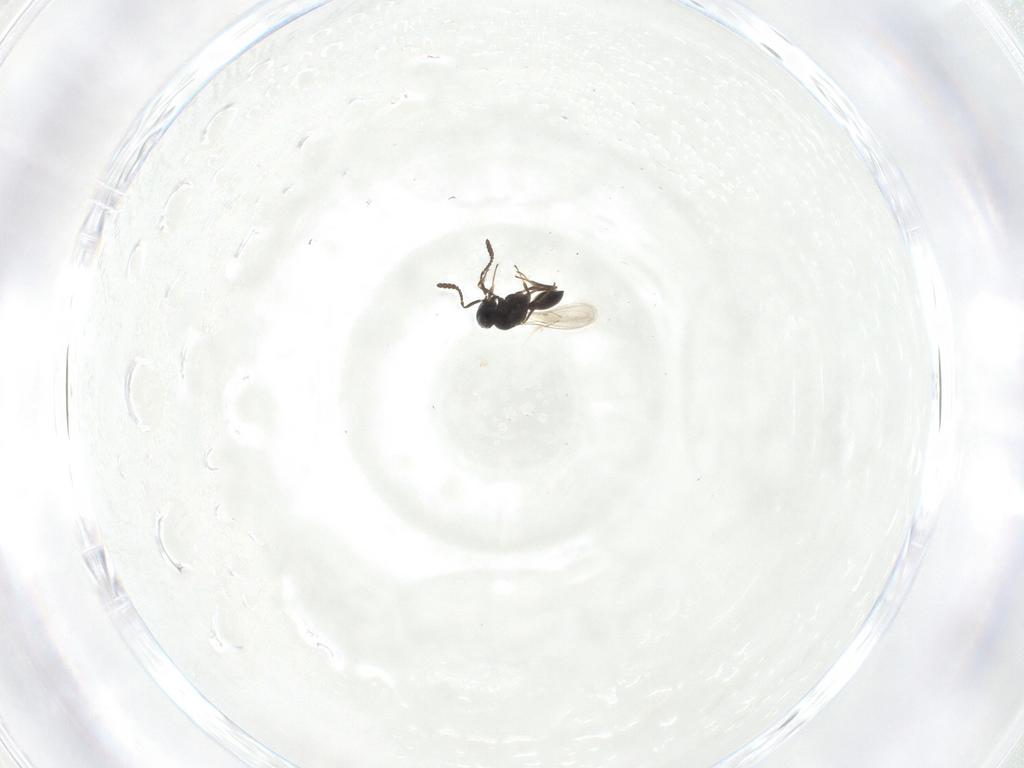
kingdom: Animalia
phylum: Arthropoda
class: Insecta
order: Hymenoptera
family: Scelionidae
